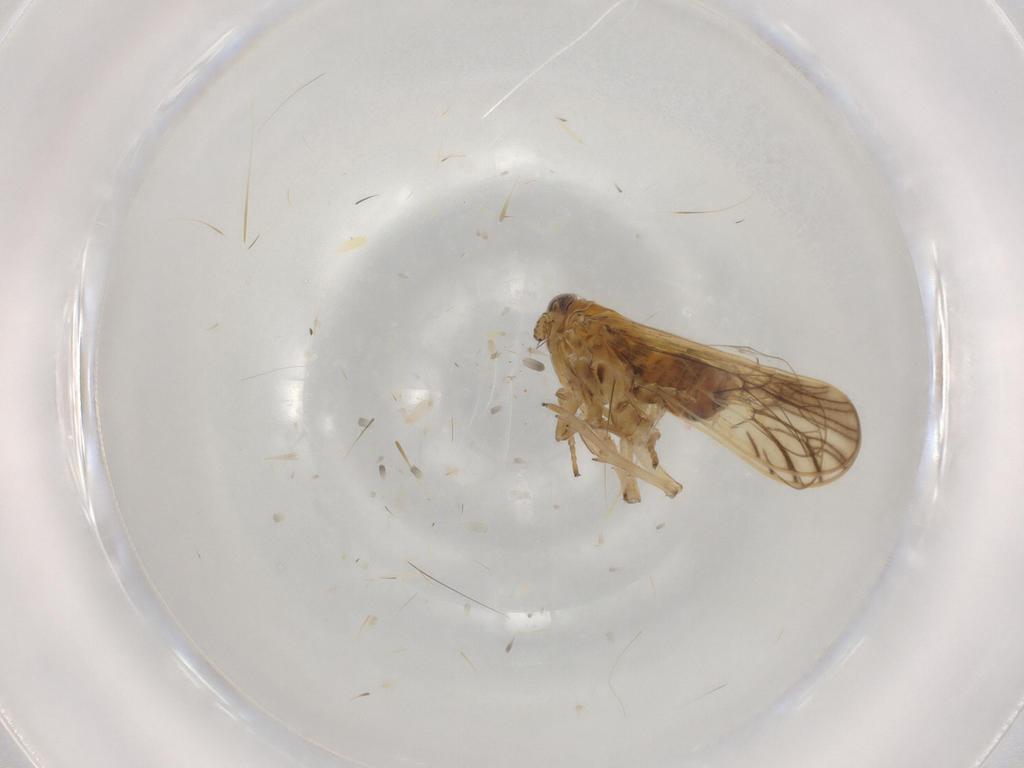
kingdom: Animalia
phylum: Arthropoda
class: Insecta
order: Hemiptera
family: Delphacidae
